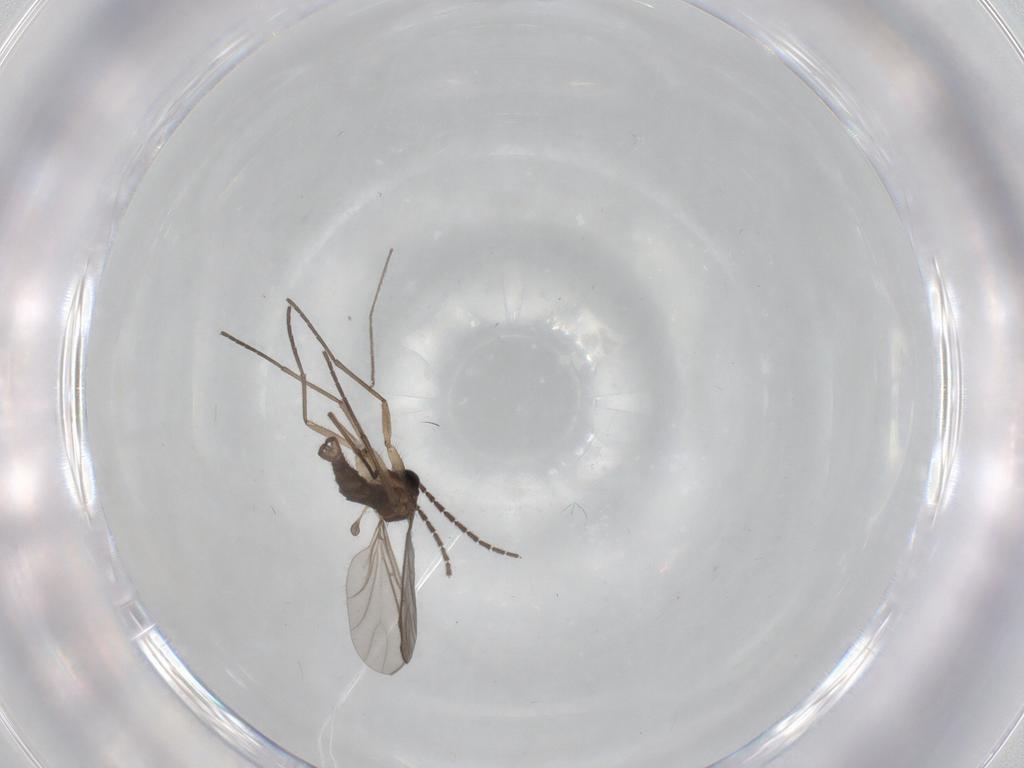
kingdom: Animalia
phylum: Arthropoda
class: Insecta
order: Diptera
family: Sciaridae
